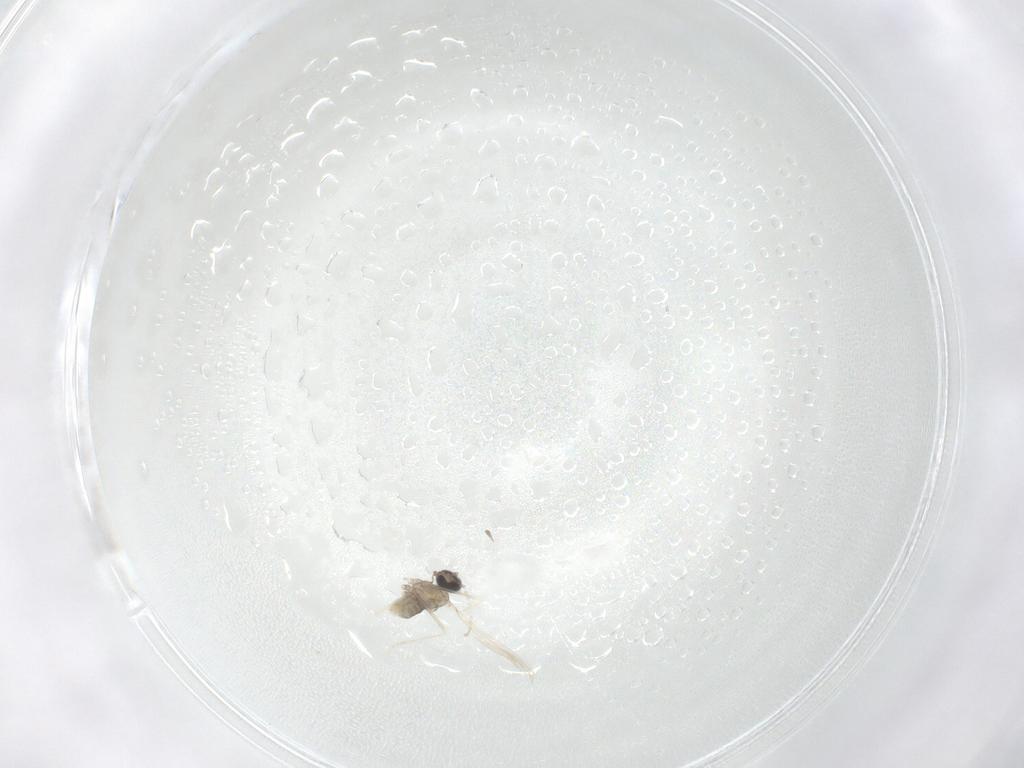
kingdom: Animalia
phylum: Arthropoda
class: Insecta
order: Diptera
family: Cecidomyiidae
